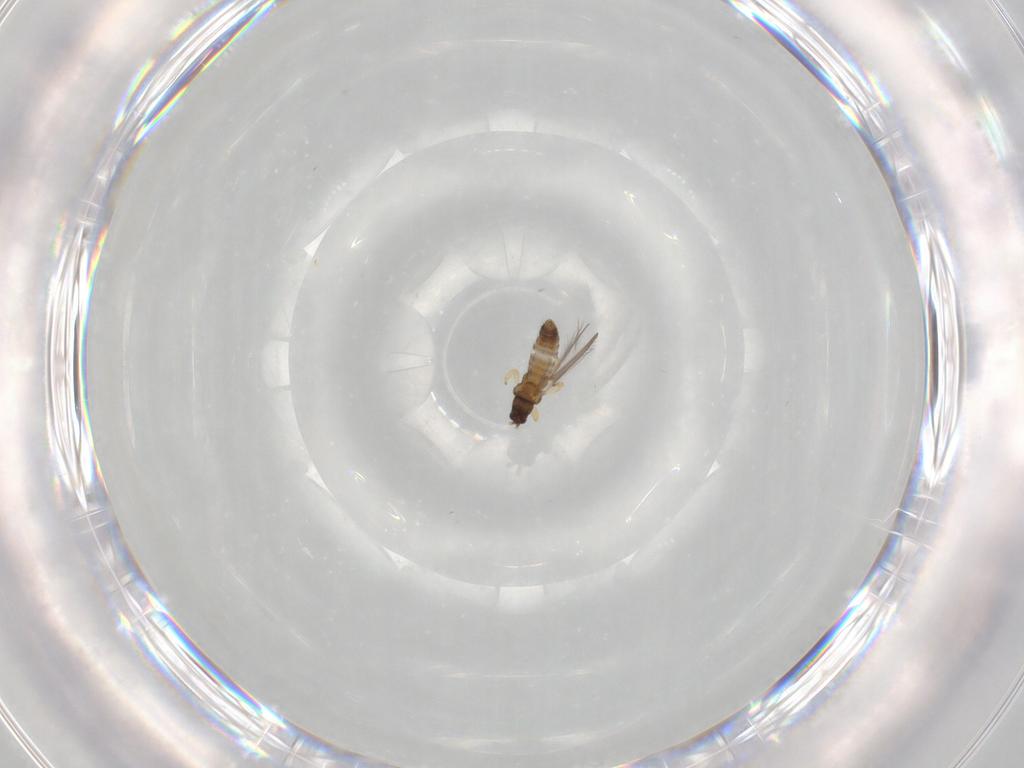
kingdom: Animalia
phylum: Arthropoda
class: Insecta
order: Thysanoptera
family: Thripidae
